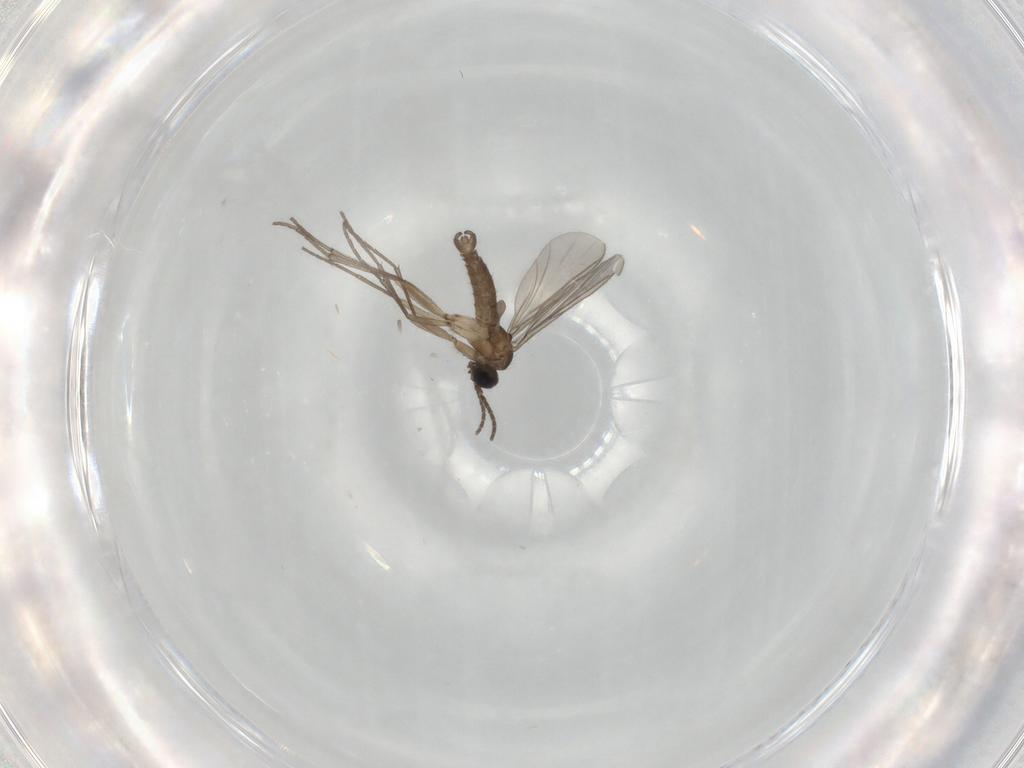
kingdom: Animalia
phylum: Arthropoda
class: Insecta
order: Diptera
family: Sciaridae
